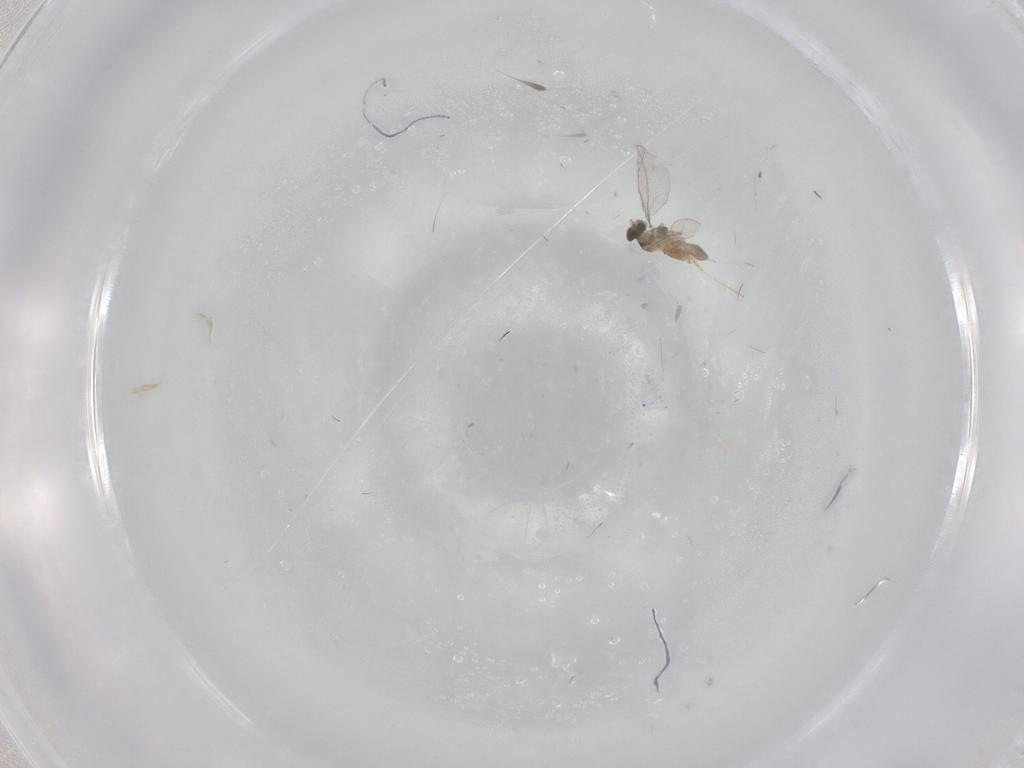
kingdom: Animalia
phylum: Arthropoda
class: Insecta
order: Diptera
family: Cecidomyiidae
